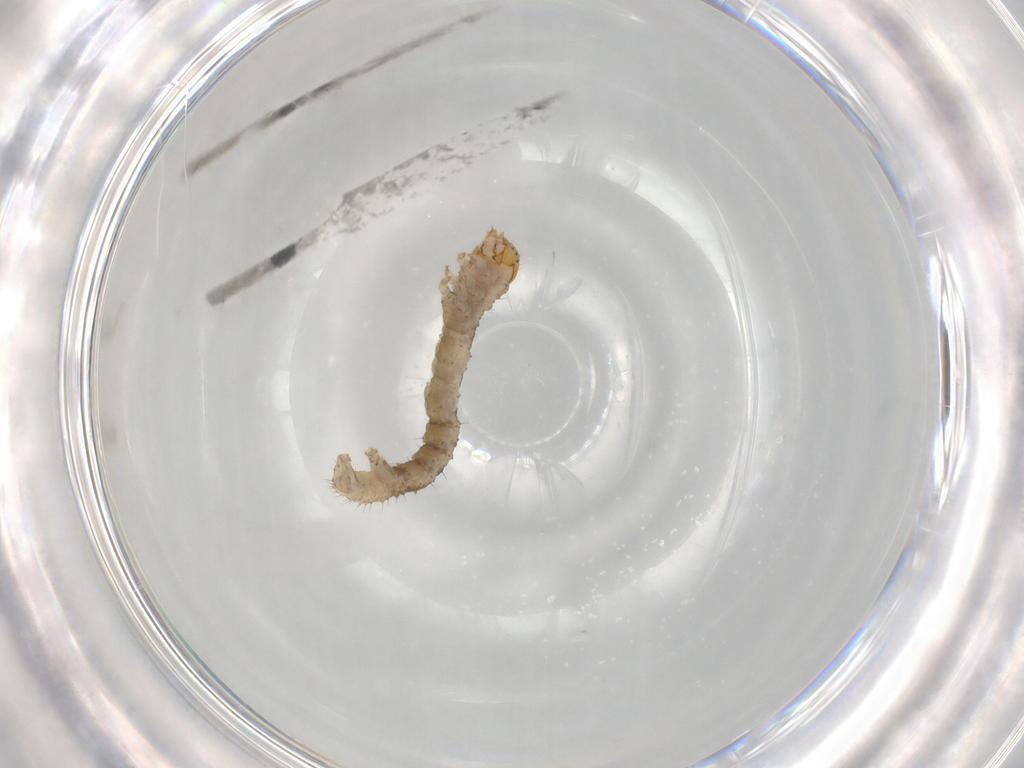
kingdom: Animalia
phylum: Arthropoda
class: Insecta
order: Lepidoptera
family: Geometridae
